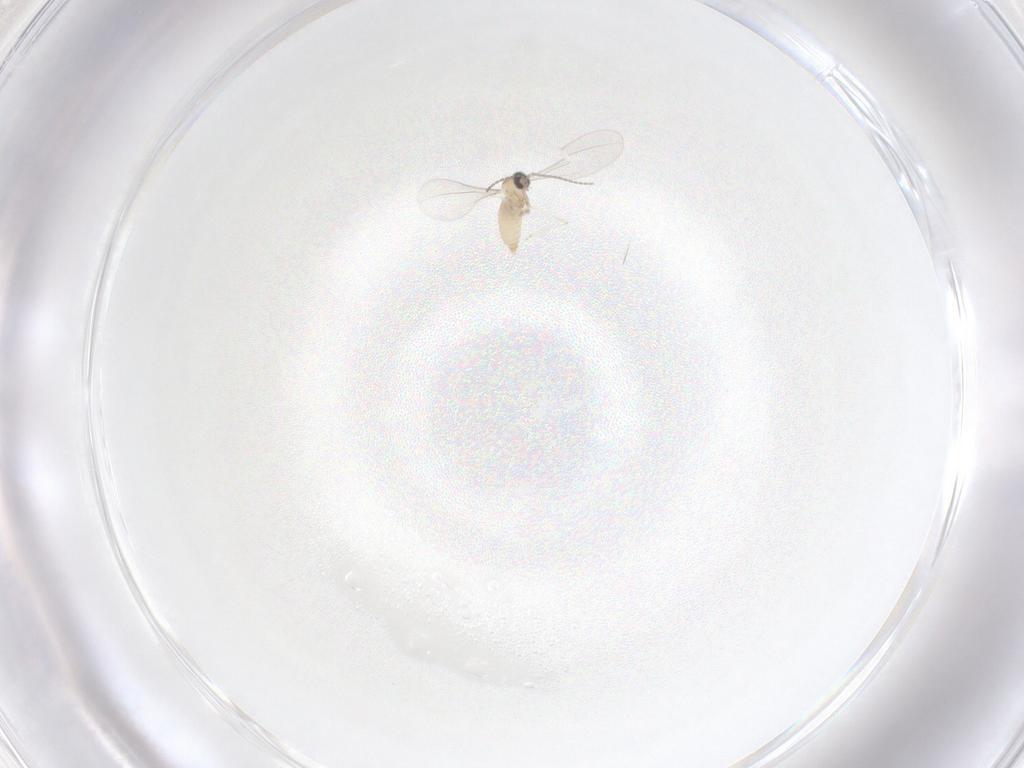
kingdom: Animalia
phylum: Arthropoda
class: Insecta
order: Diptera
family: Cecidomyiidae
